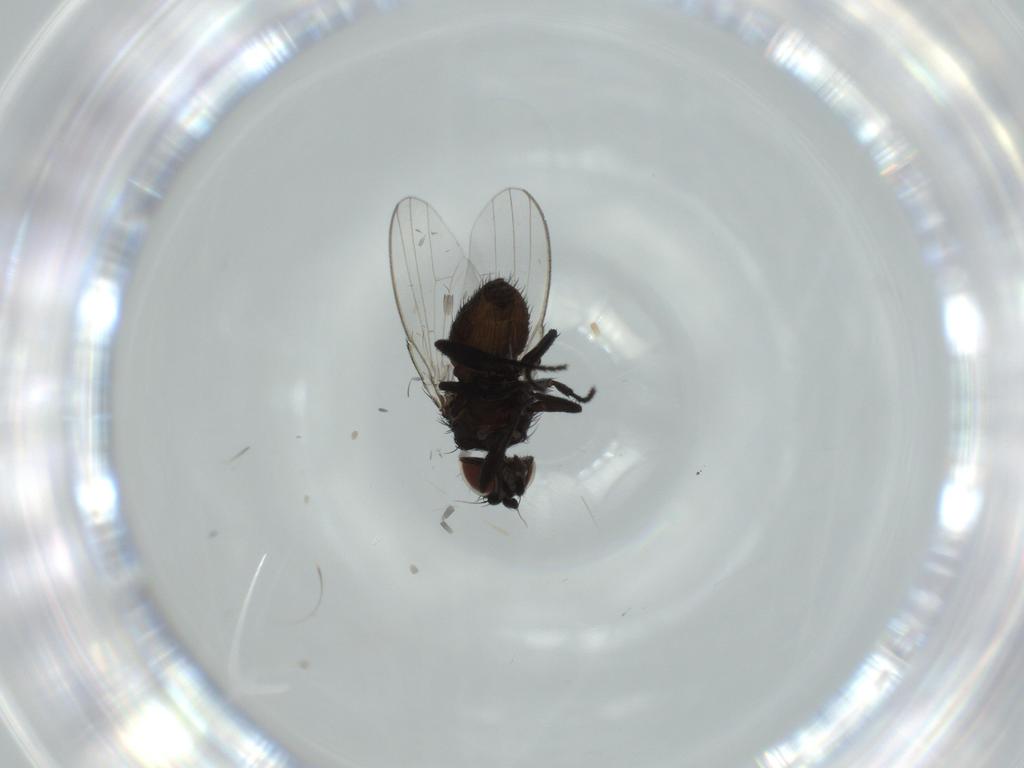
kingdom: Animalia
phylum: Arthropoda
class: Insecta
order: Diptera
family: Milichiidae
